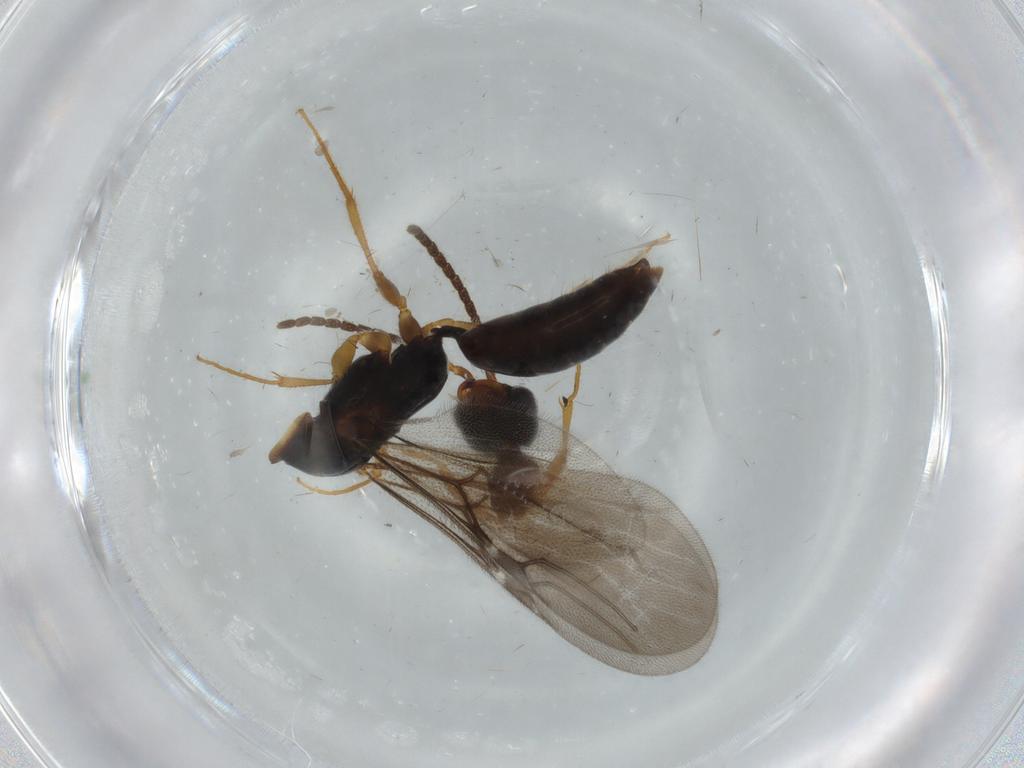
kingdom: Animalia
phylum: Arthropoda
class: Insecta
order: Hymenoptera
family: Bethylidae
